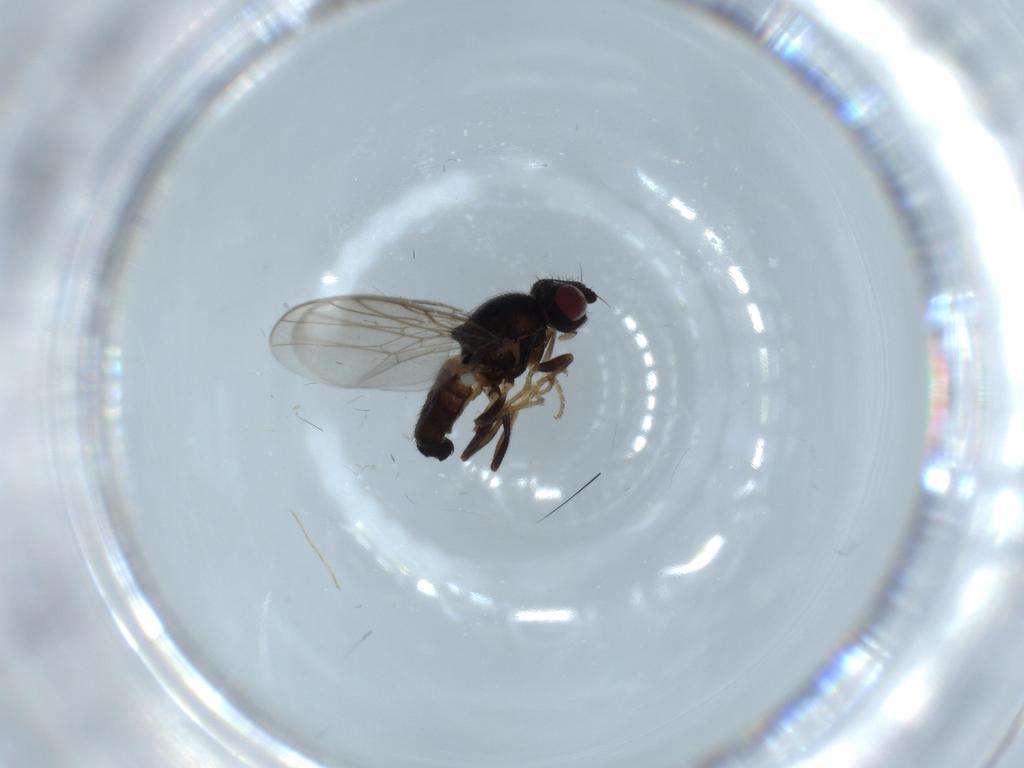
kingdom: Animalia
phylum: Arthropoda
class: Insecta
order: Diptera
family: Chloropidae
